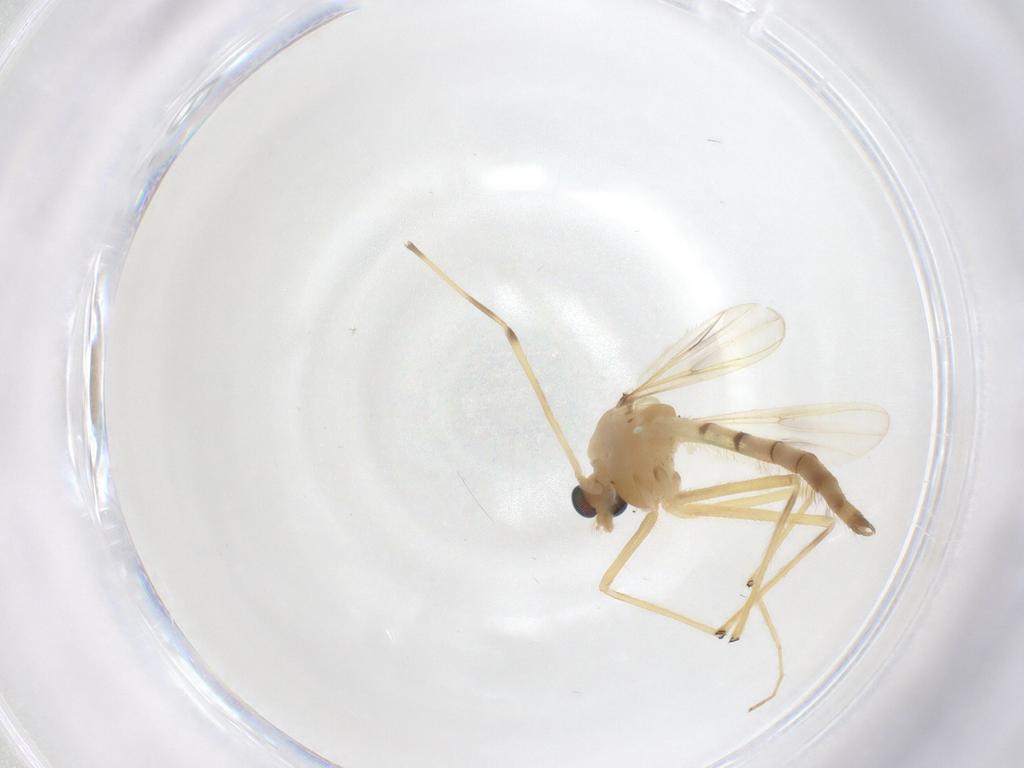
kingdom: Animalia
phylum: Arthropoda
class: Insecta
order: Diptera
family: Chironomidae
